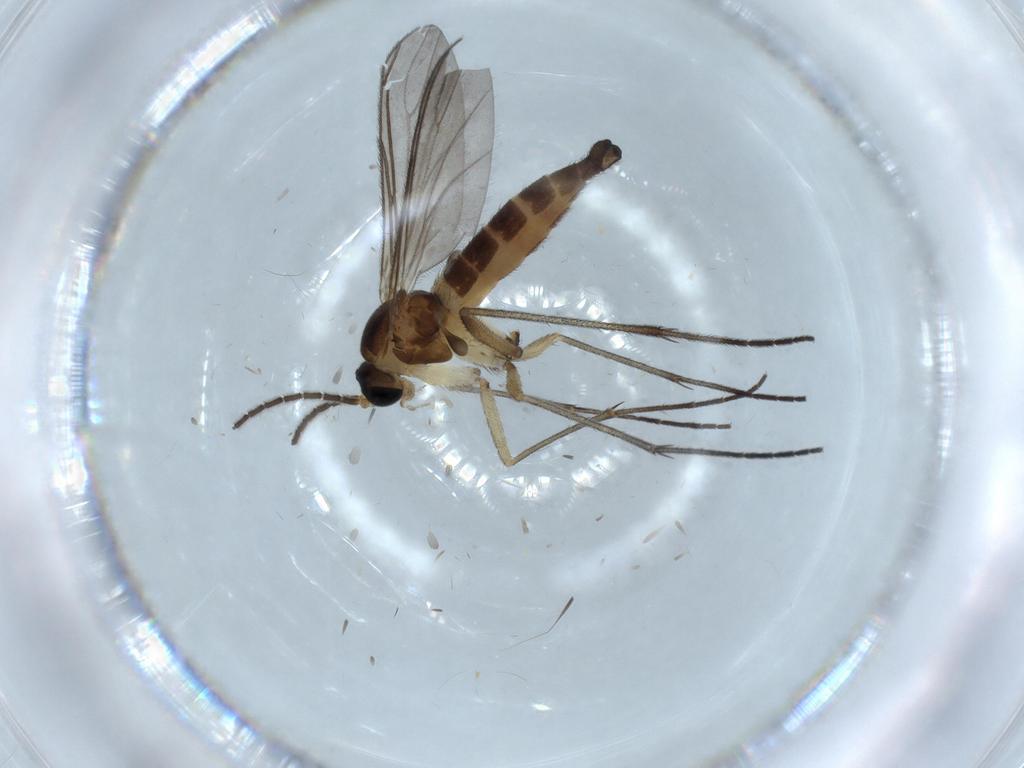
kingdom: Animalia
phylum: Arthropoda
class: Insecta
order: Diptera
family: Sciaridae
